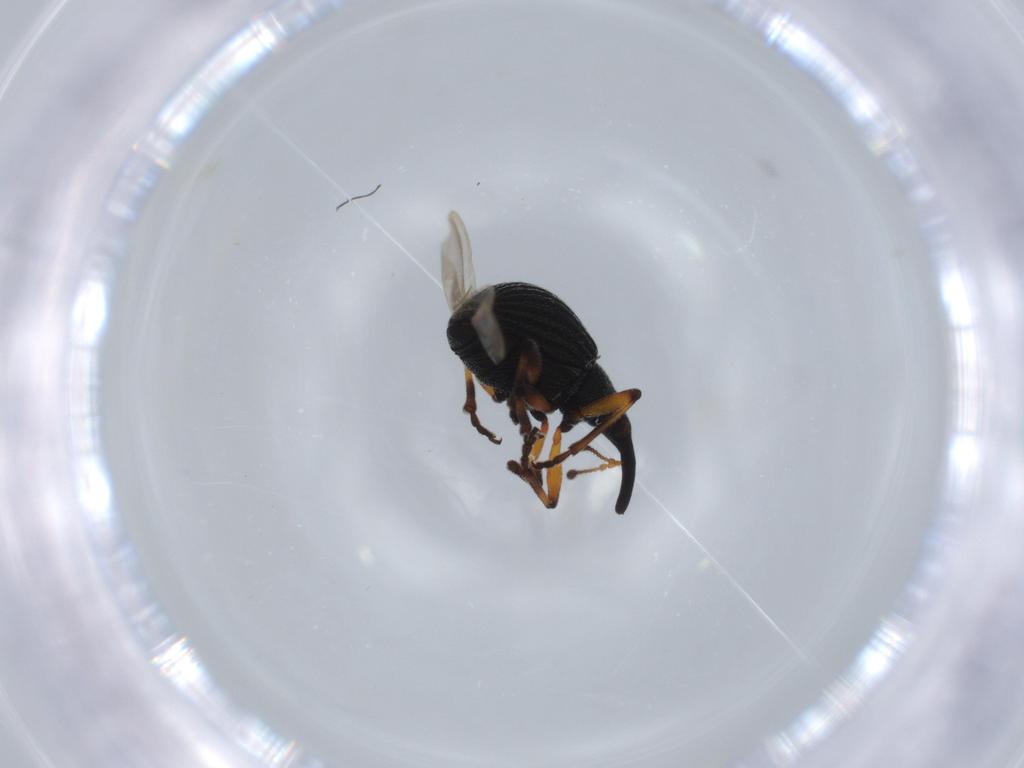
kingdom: Animalia
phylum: Arthropoda
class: Insecta
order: Coleoptera
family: Brentidae
